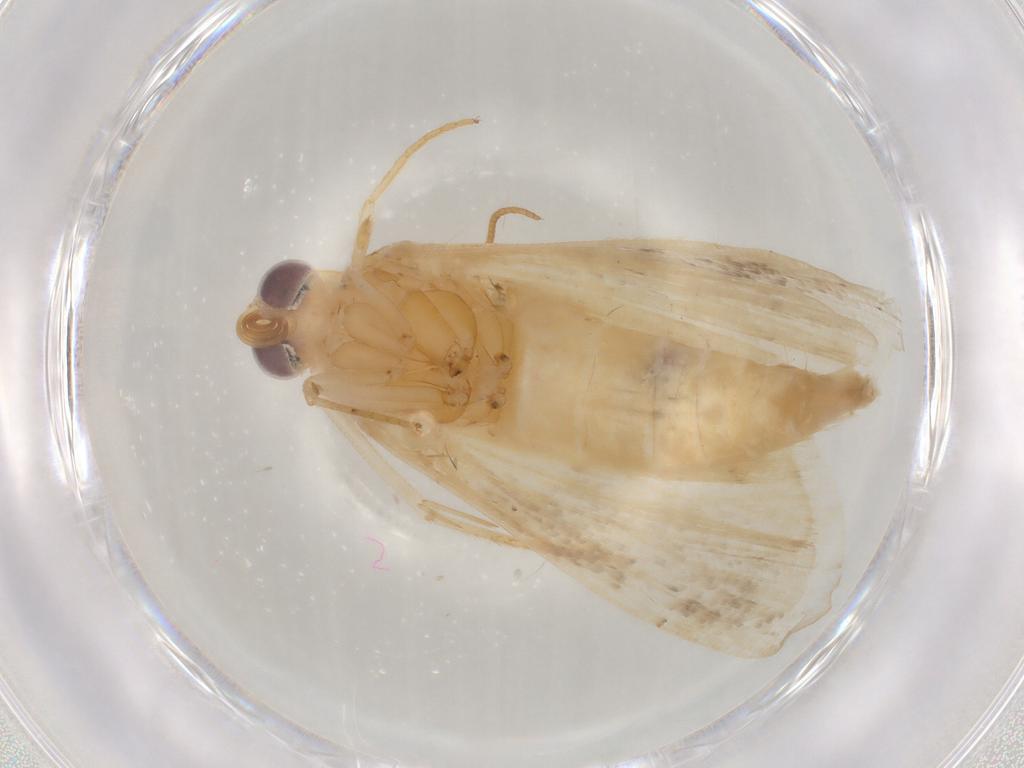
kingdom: Animalia
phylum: Arthropoda
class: Insecta
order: Lepidoptera
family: Noctuidae
